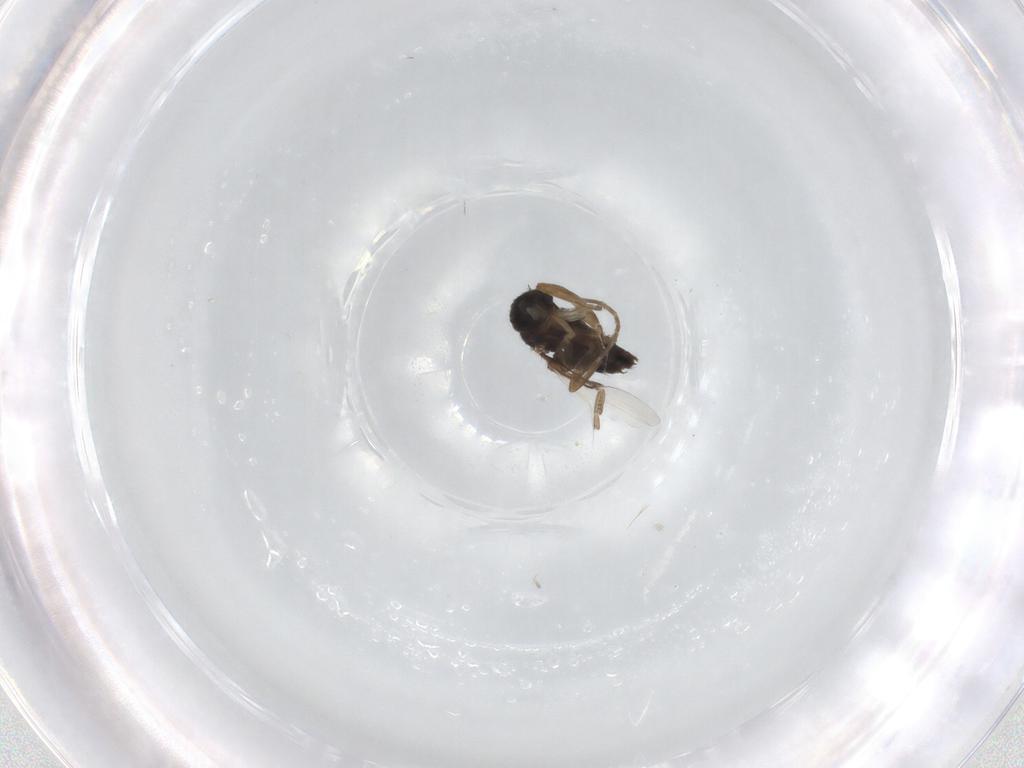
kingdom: Animalia
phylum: Arthropoda
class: Insecta
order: Diptera
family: Phoridae
